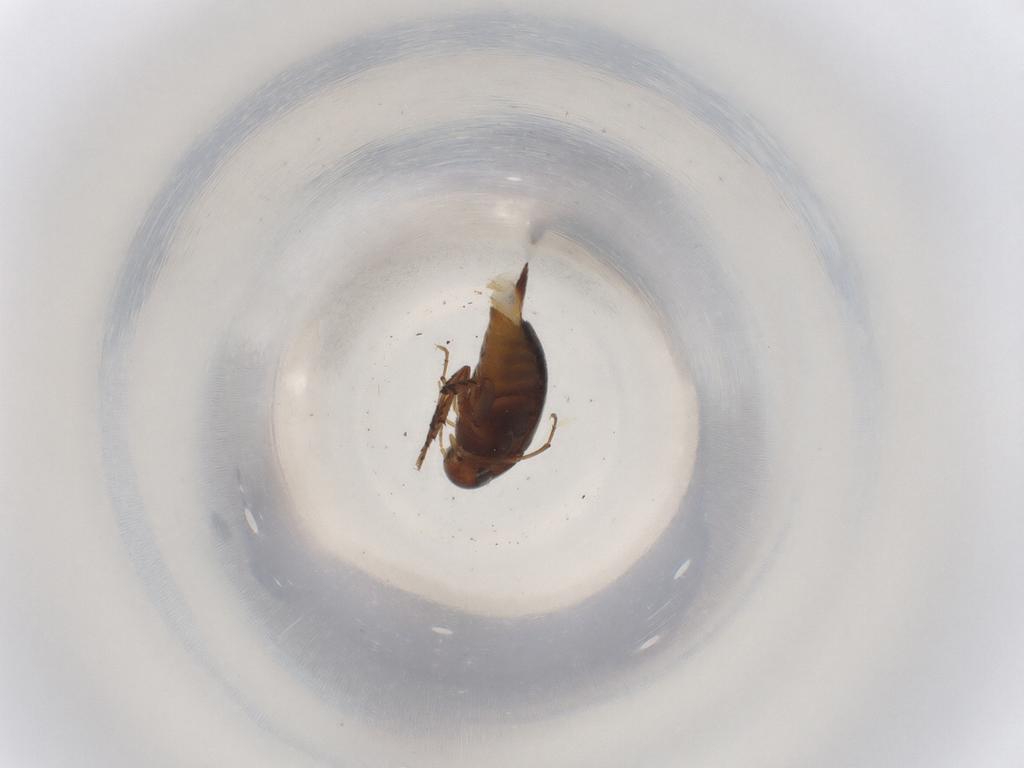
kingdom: Animalia
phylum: Arthropoda
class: Insecta
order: Coleoptera
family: Mordellidae
